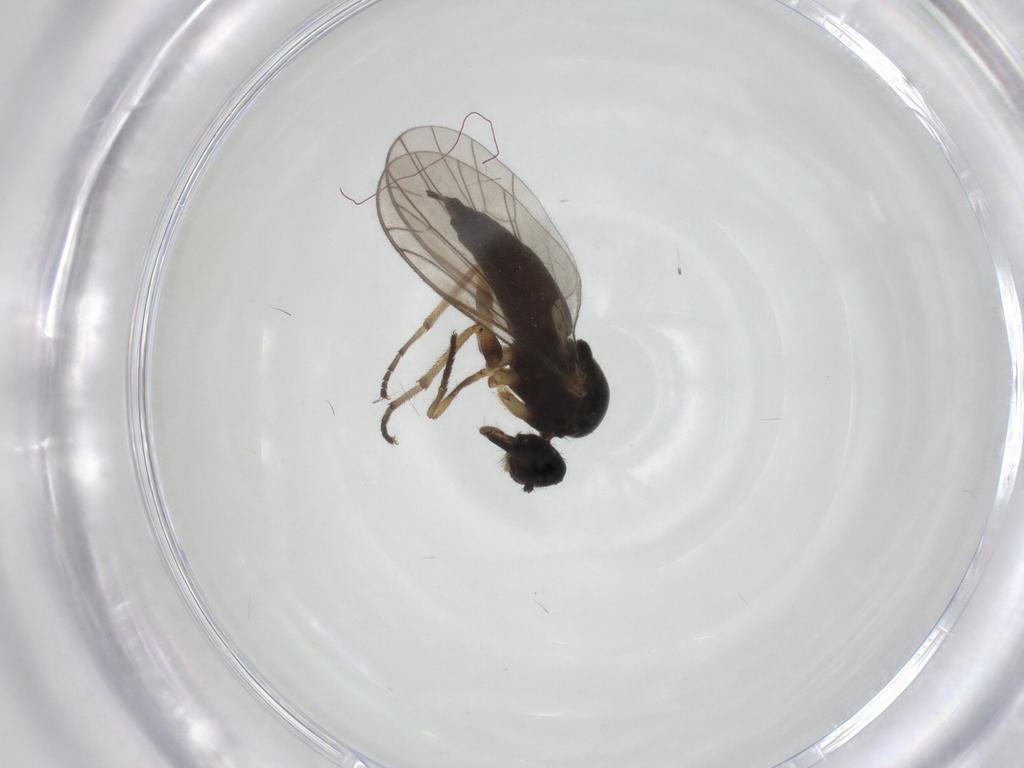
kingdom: Animalia
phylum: Arthropoda
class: Insecta
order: Diptera
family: Empididae
